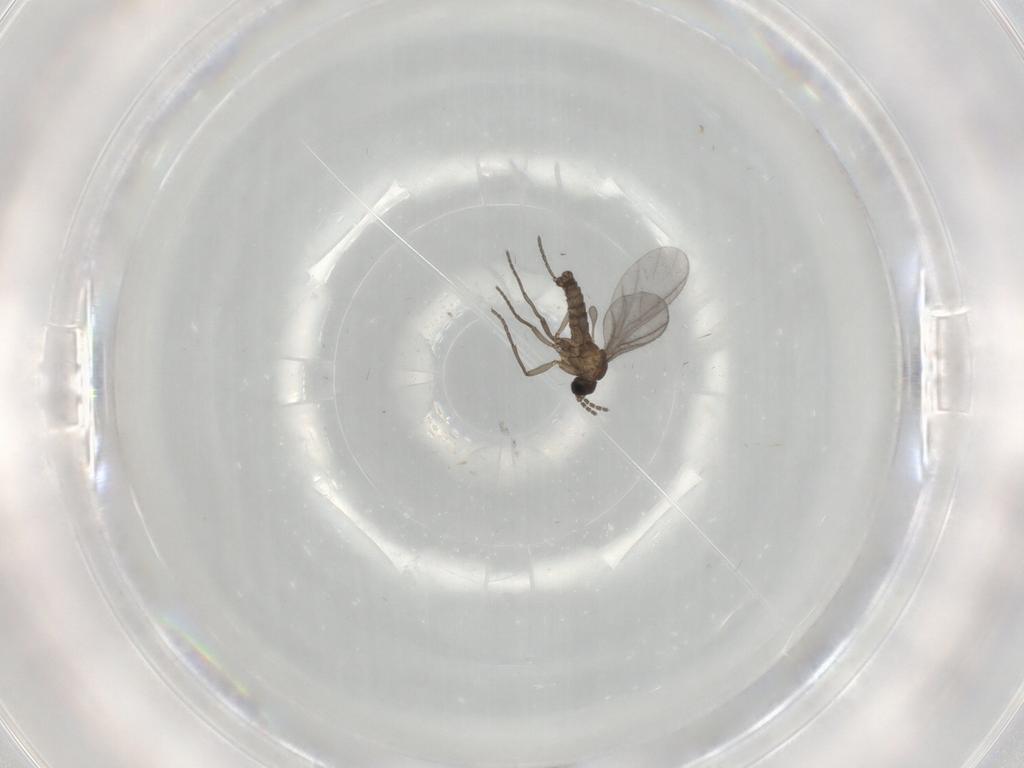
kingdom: Animalia
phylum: Arthropoda
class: Insecta
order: Diptera
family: Sciaridae
